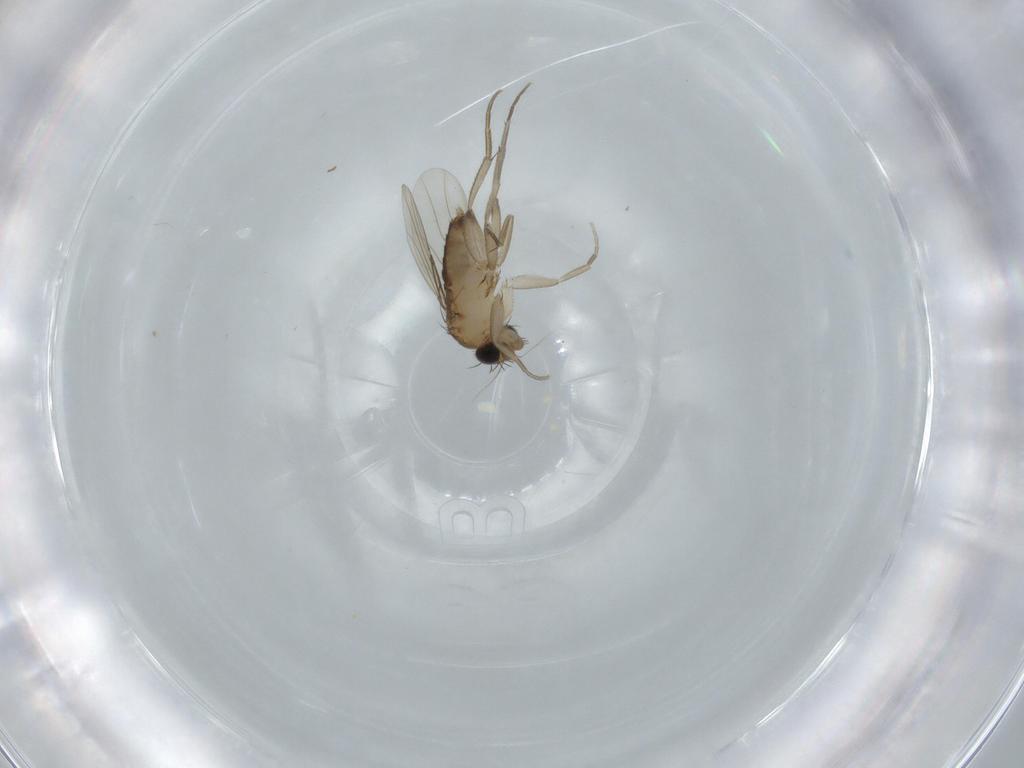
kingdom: Animalia
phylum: Arthropoda
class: Insecta
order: Diptera
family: Phoridae
